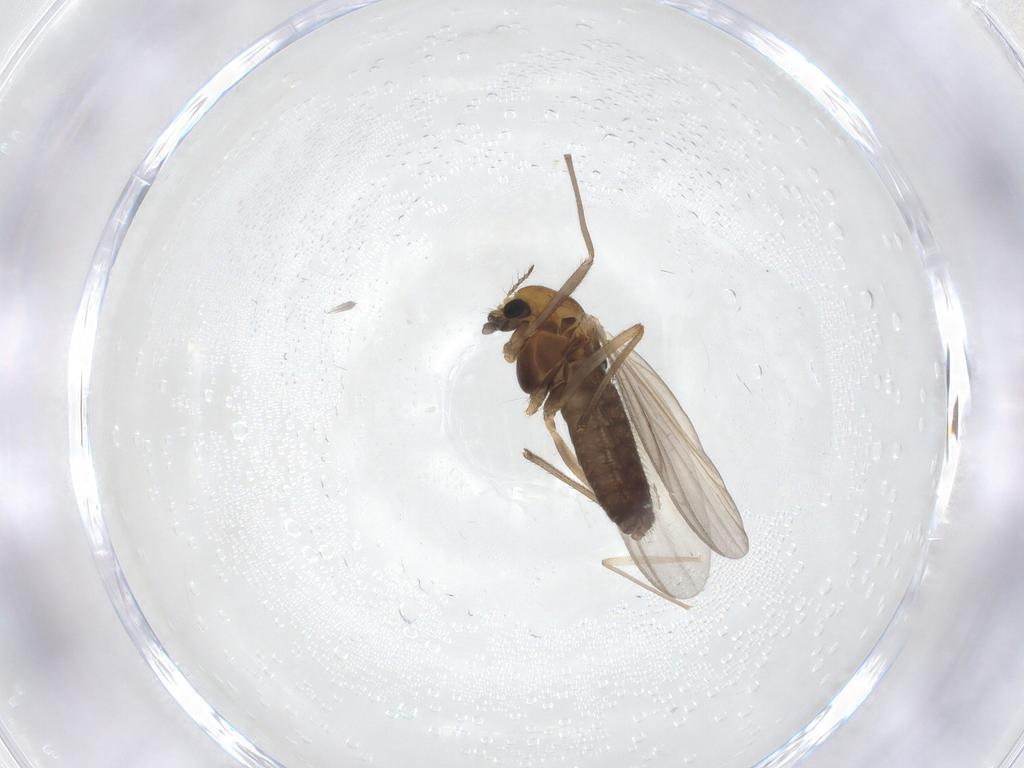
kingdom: Animalia
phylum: Arthropoda
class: Insecta
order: Diptera
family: Chironomidae
